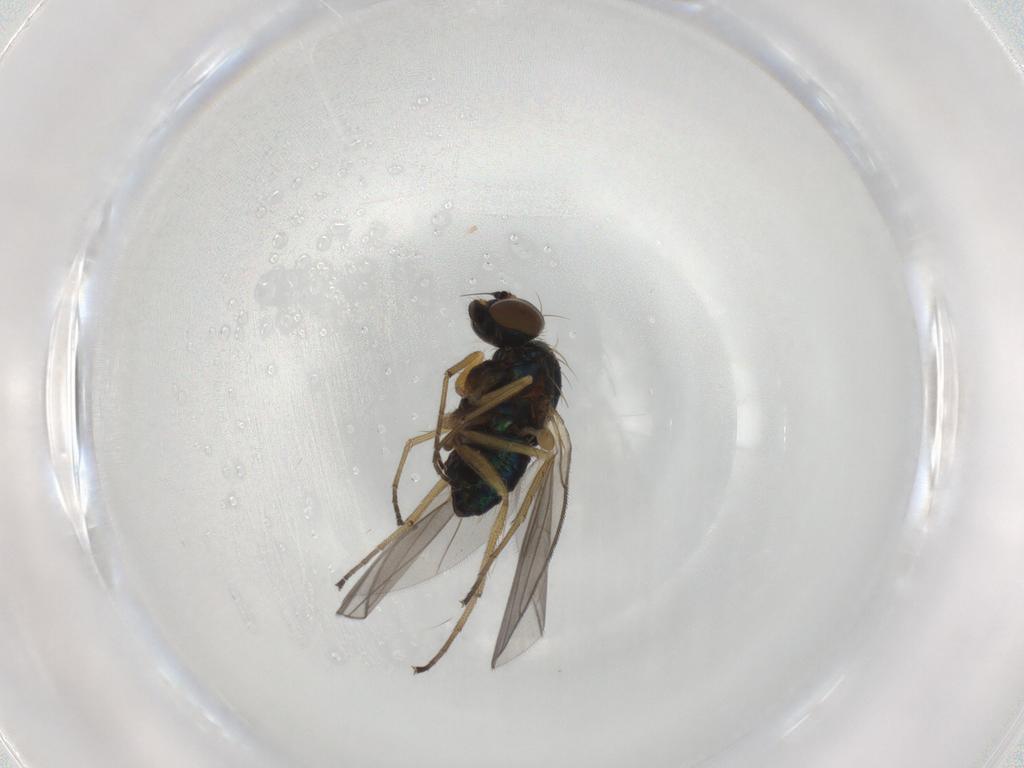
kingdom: Animalia
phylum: Arthropoda
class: Insecta
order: Diptera
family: Dolichopodidae
